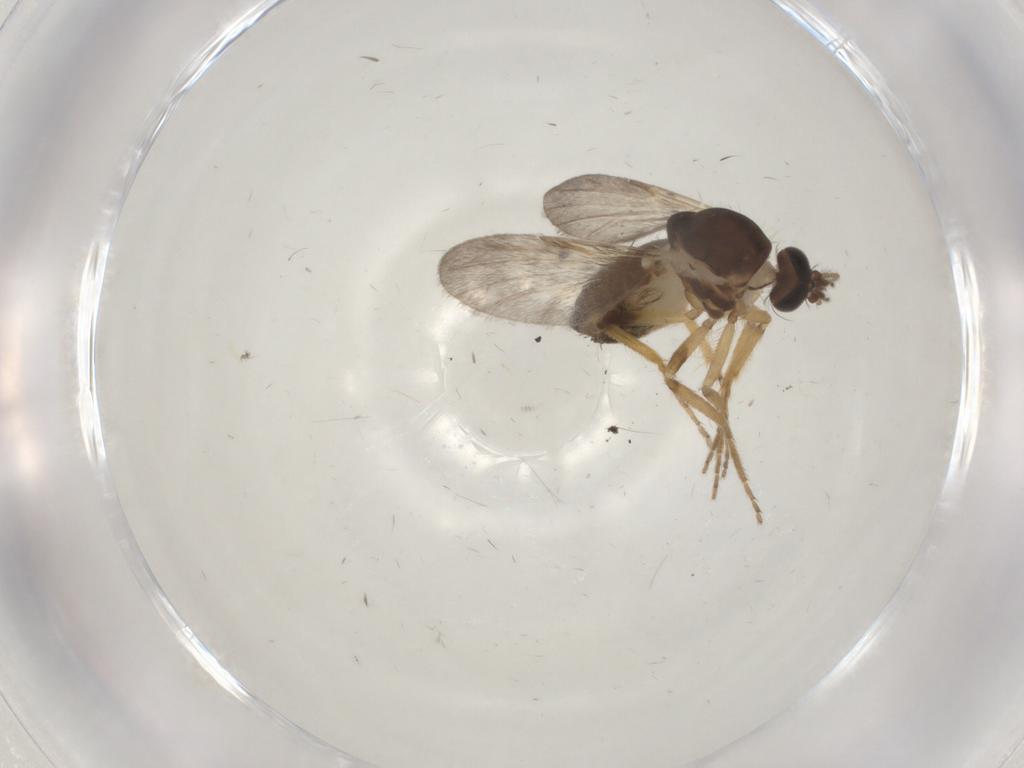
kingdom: Animalia
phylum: Arthropoda
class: Insecta
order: Diptera
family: Ceratopogonidae
